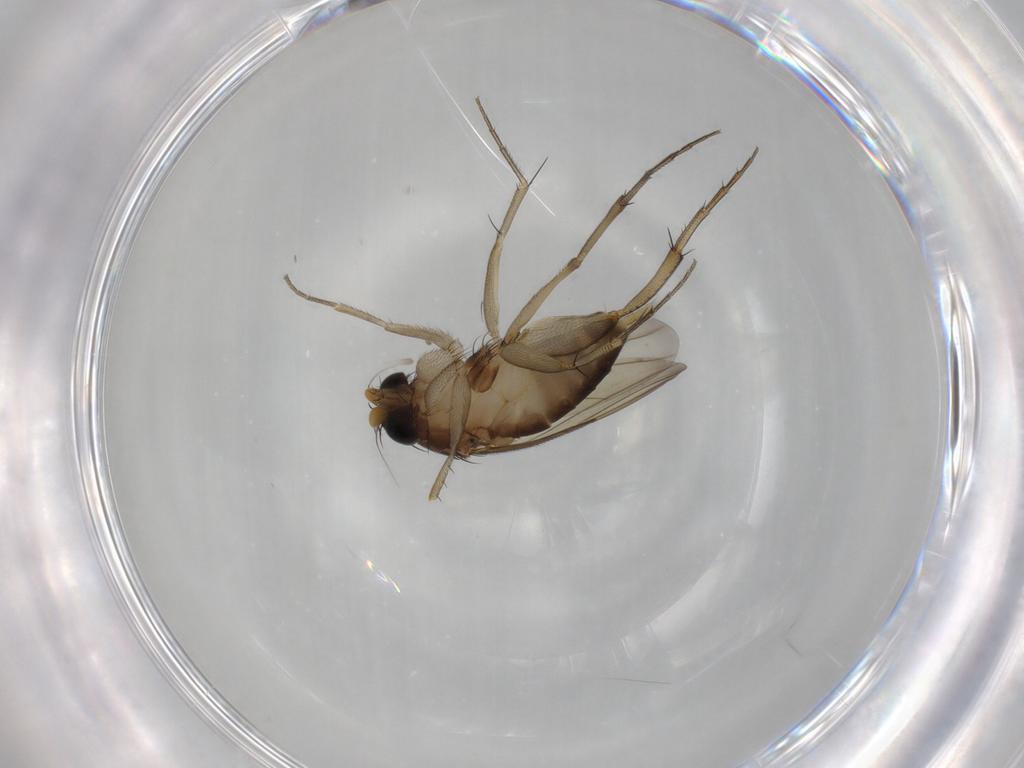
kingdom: Animalia
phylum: Arthropoda
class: Insecta
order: Diptera
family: Phoridae
